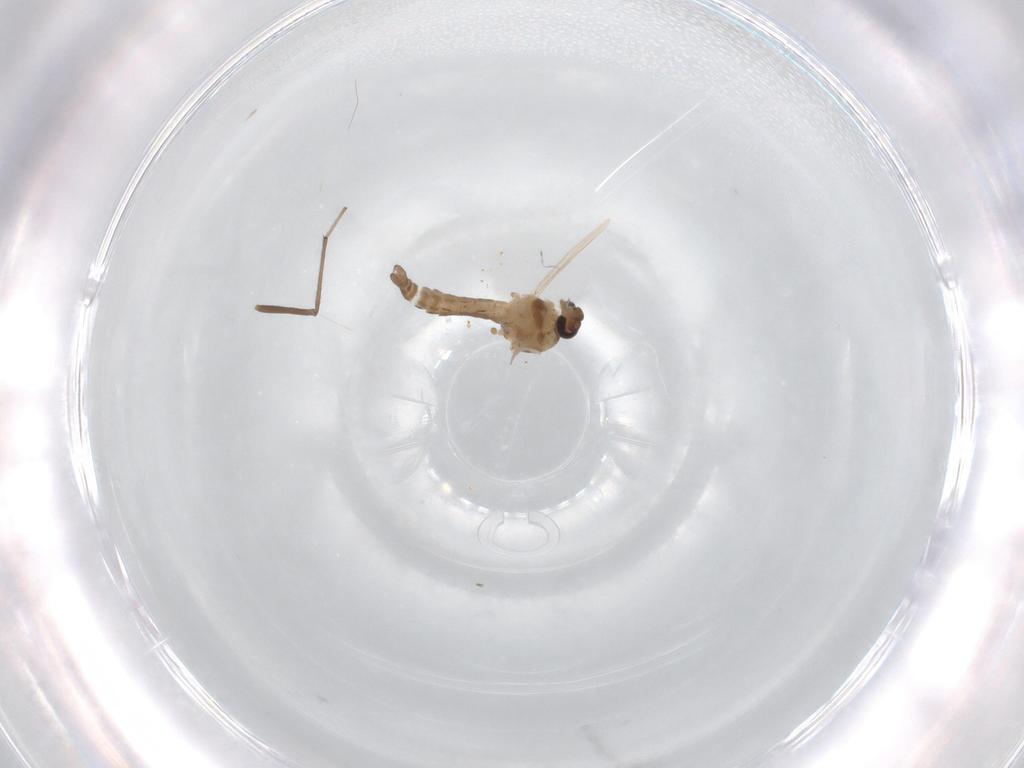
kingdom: Animalia
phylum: Arthropoda
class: Insecta
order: Diptera
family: Ceratopogonidae
